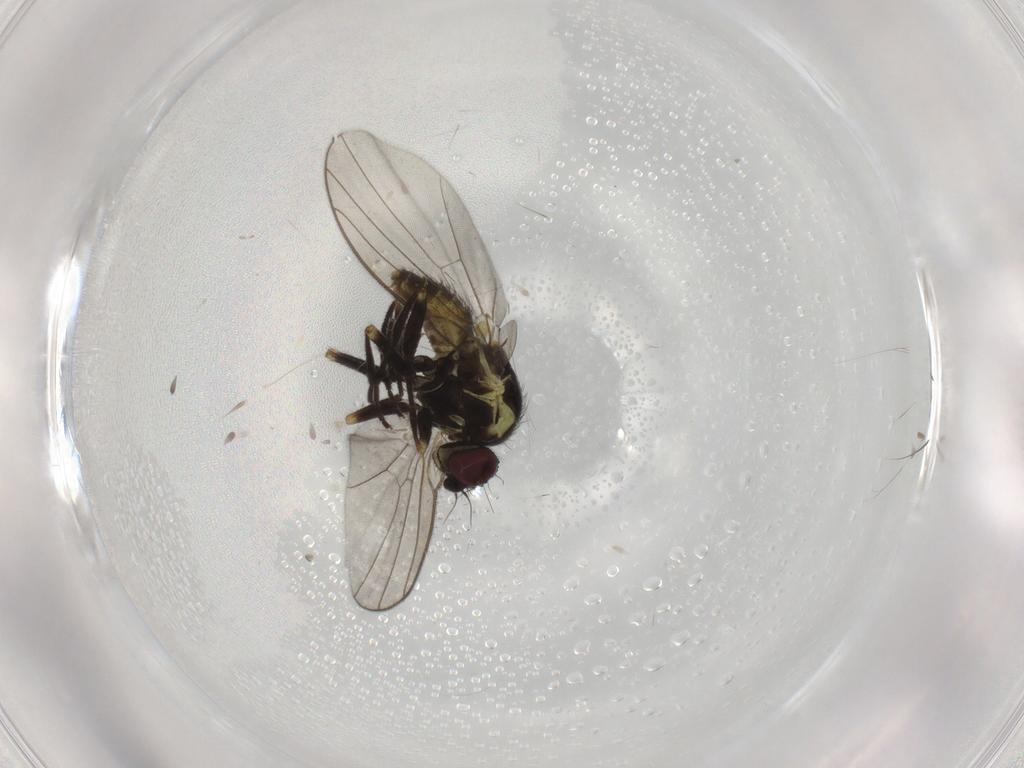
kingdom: Animalia
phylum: Arthropoda
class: Insecta
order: Diptera
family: Agromyzidae
